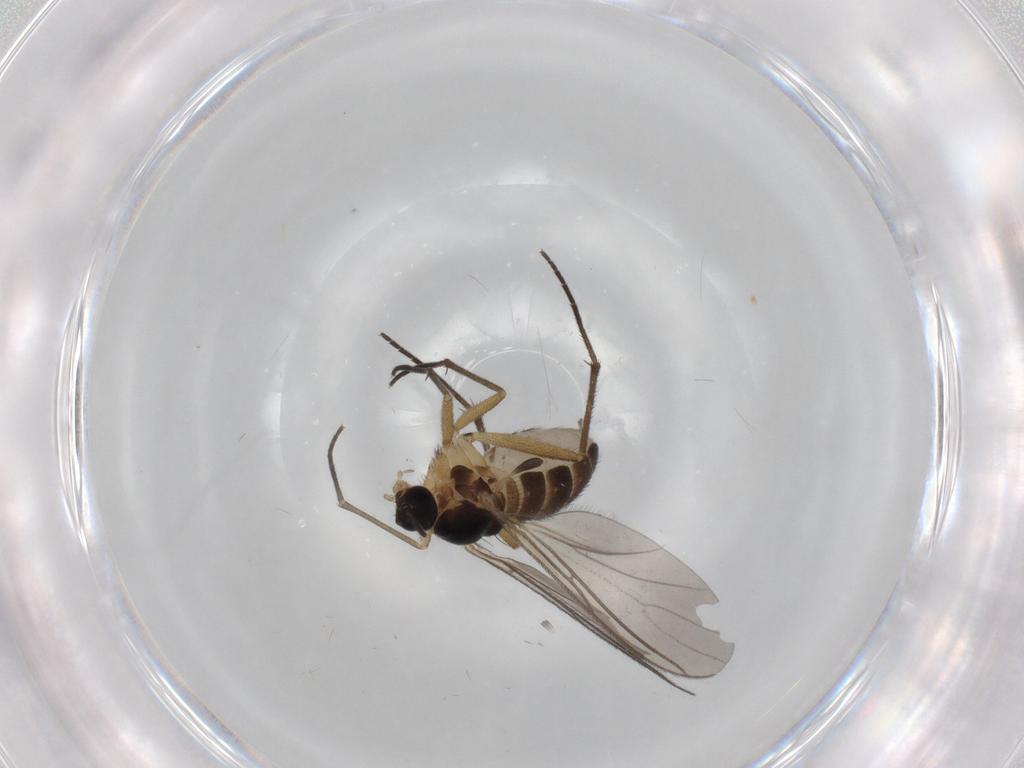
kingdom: Animalia
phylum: Arthropoda
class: Insecta
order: Diptera
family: Sciaridae
